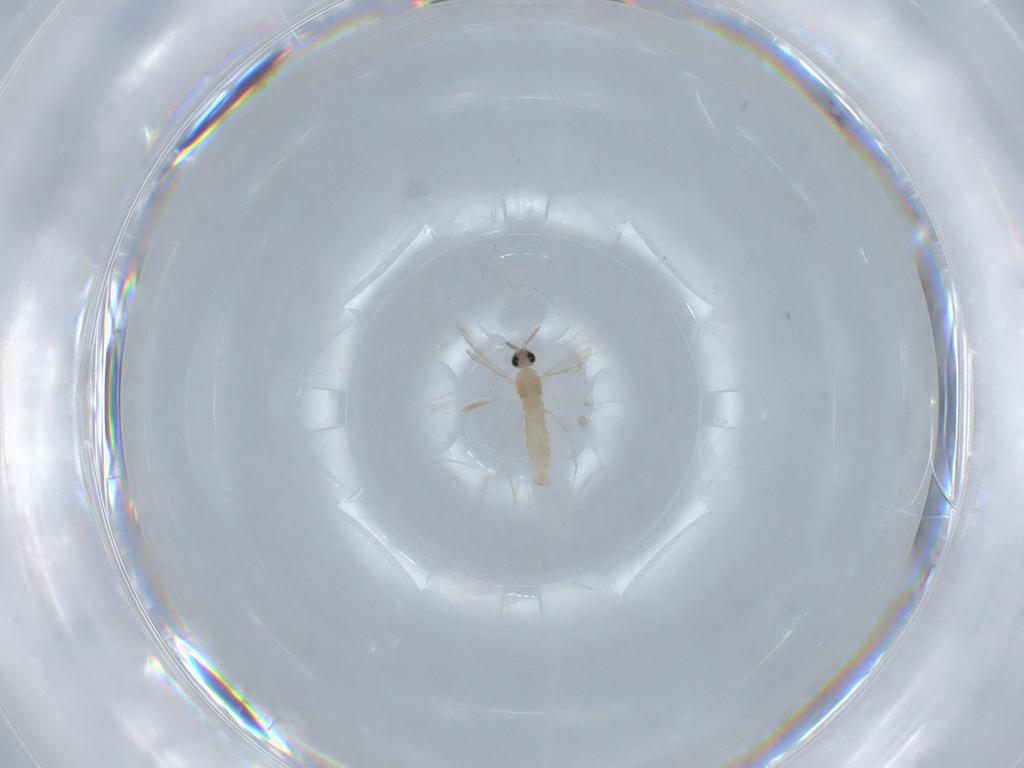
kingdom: Animalia
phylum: Arthropoda
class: Insecta
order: Diptera
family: Cecidomyiidae
